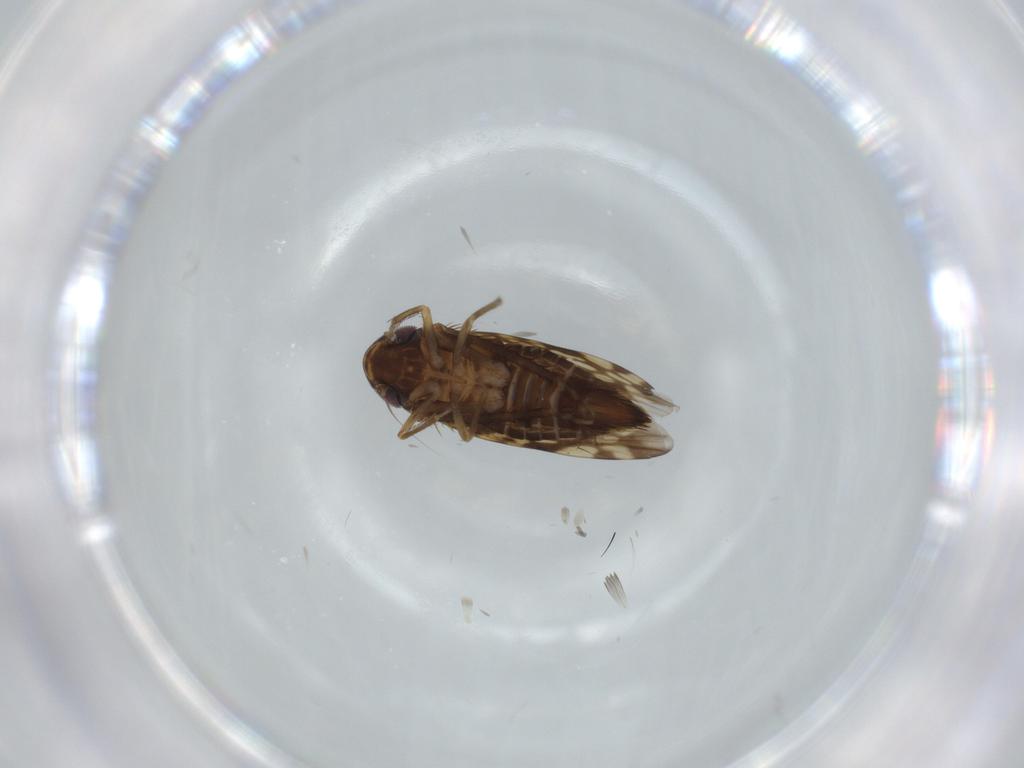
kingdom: Animalia
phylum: Arthropoda
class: Insecta
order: Hemiptera
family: Cicadellidae
